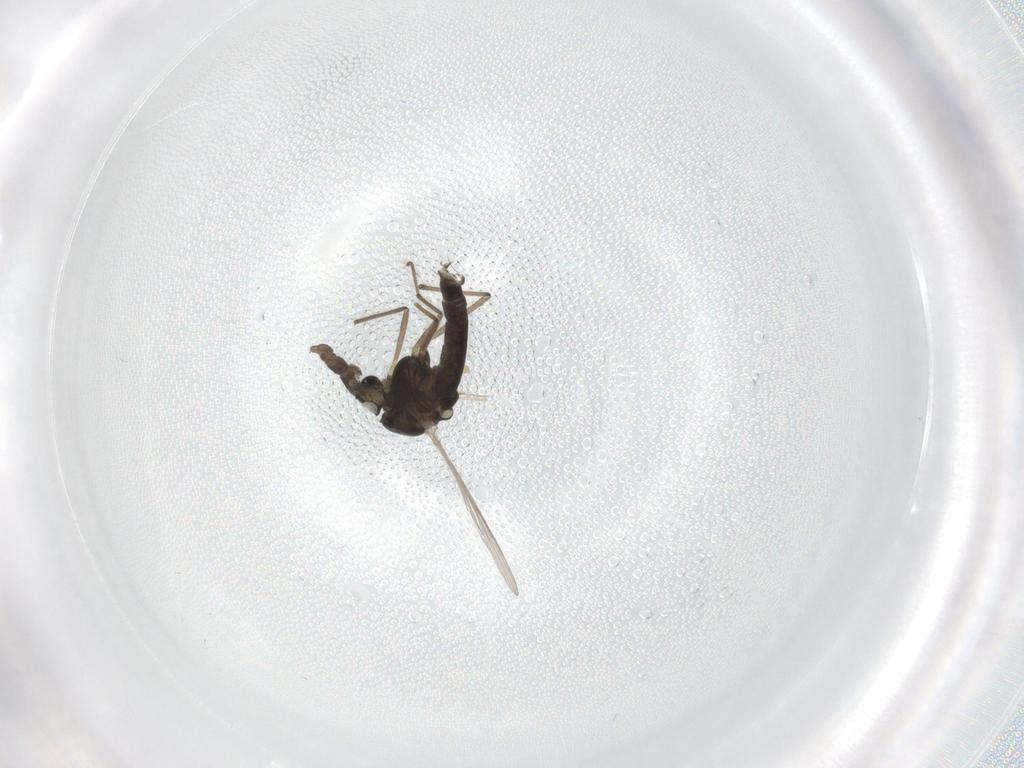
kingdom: Animalia
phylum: Arthropoda
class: Insecta
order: Diptera
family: Chironomidae
